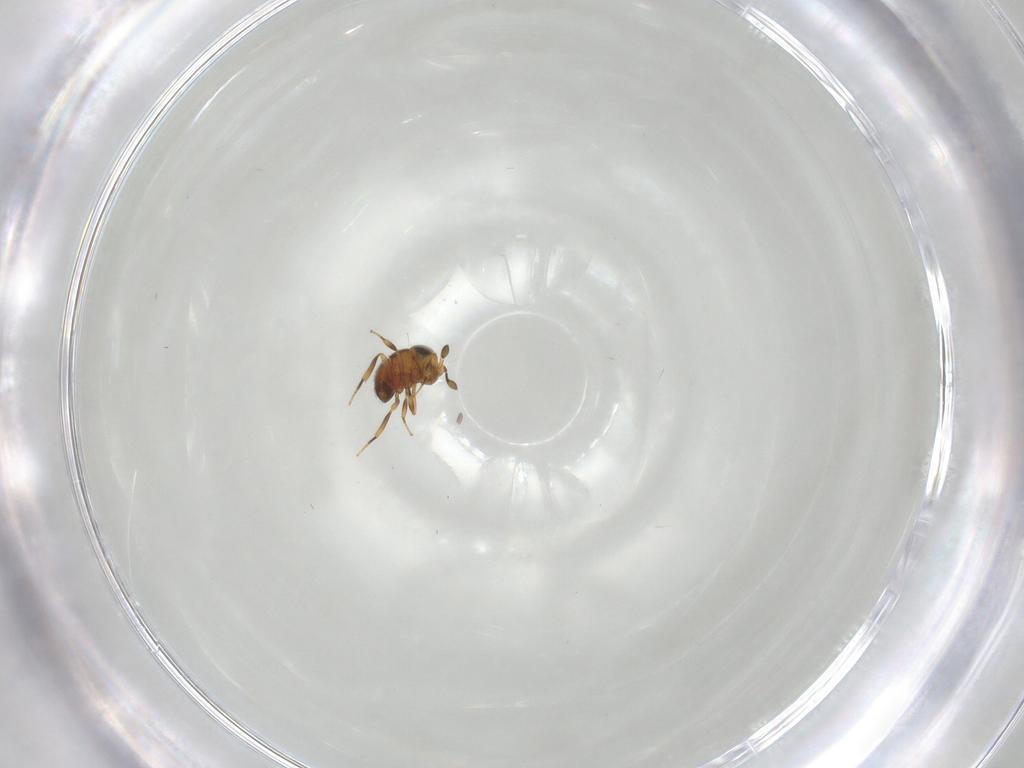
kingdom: Animalia
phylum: Arthropoda
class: Insecta
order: Hymenoptera
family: Scelionidae
